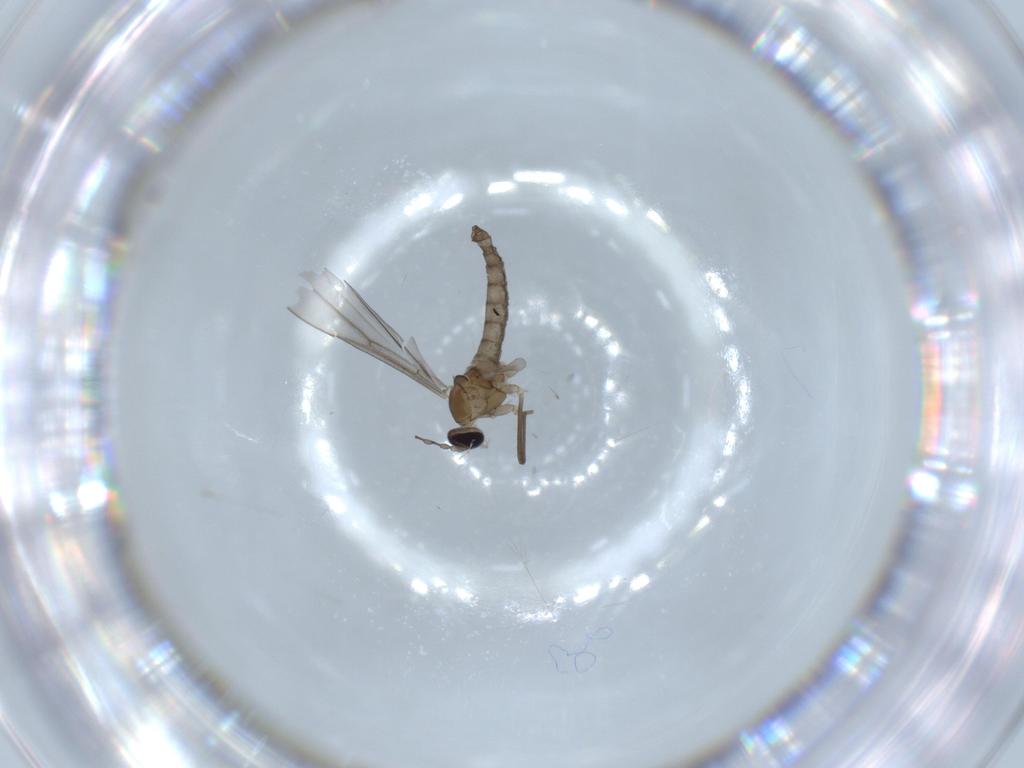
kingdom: Animalia
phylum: Arthropoda
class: Insecta
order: Diptera
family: Cecidomyiidae
